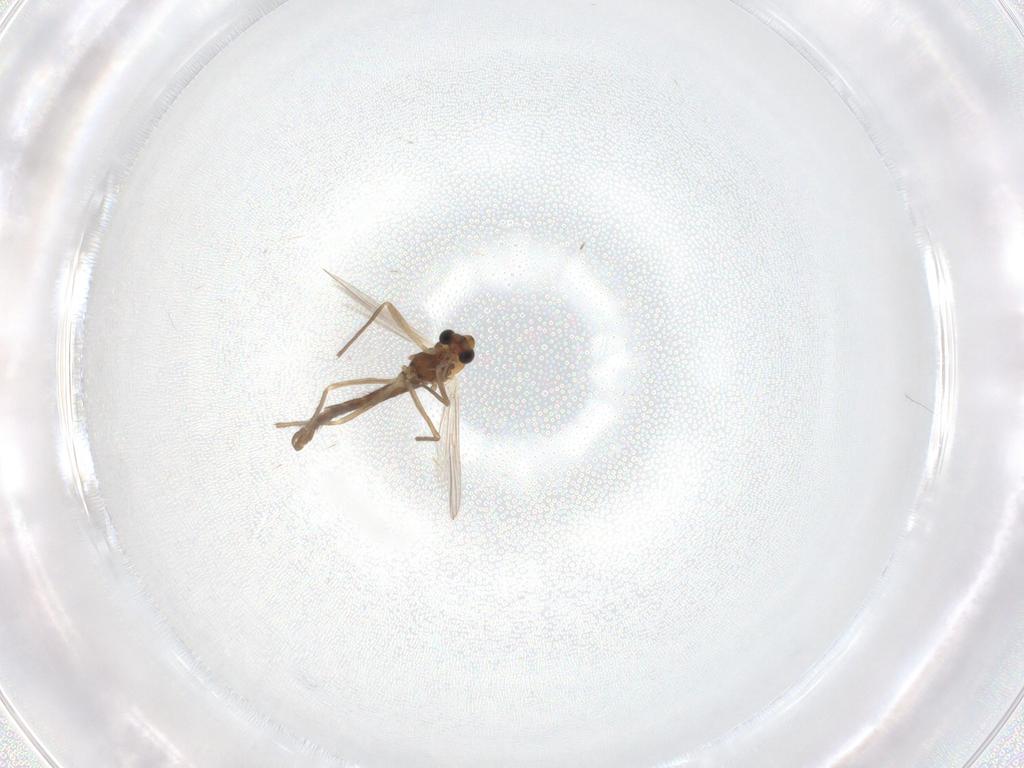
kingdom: Animalia
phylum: Arthropoda
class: Insecta
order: Diptera
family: Chironomidae
